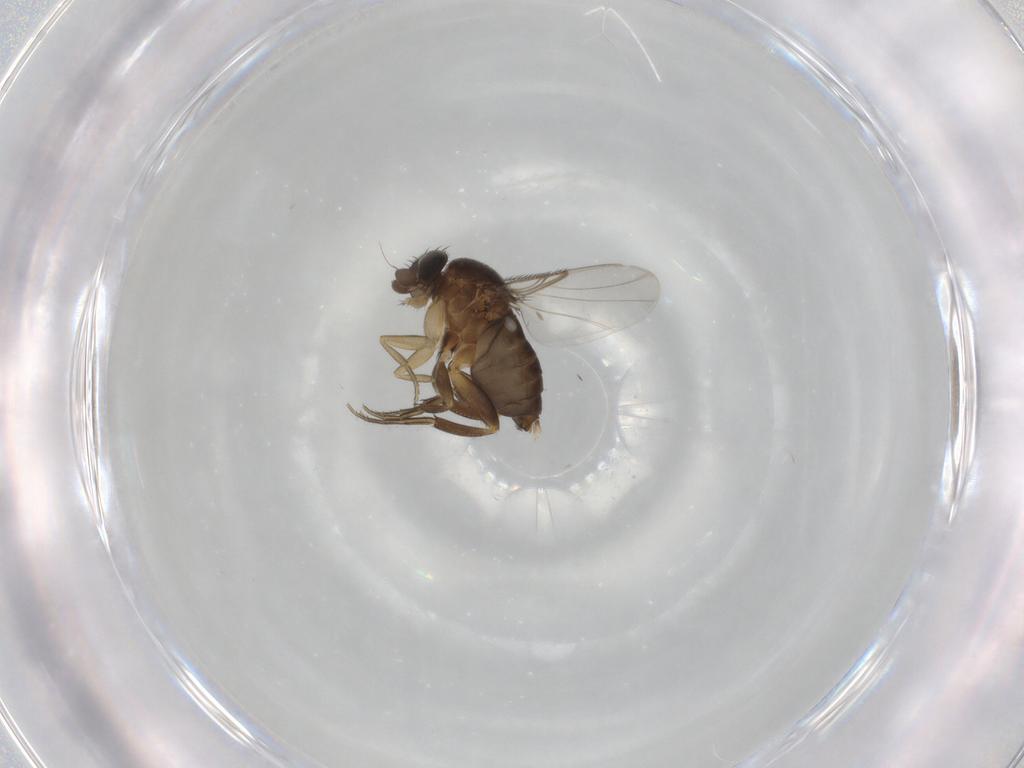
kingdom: Animalia
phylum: Arthropoda
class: Insecta
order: Diptera
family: Phoridae
